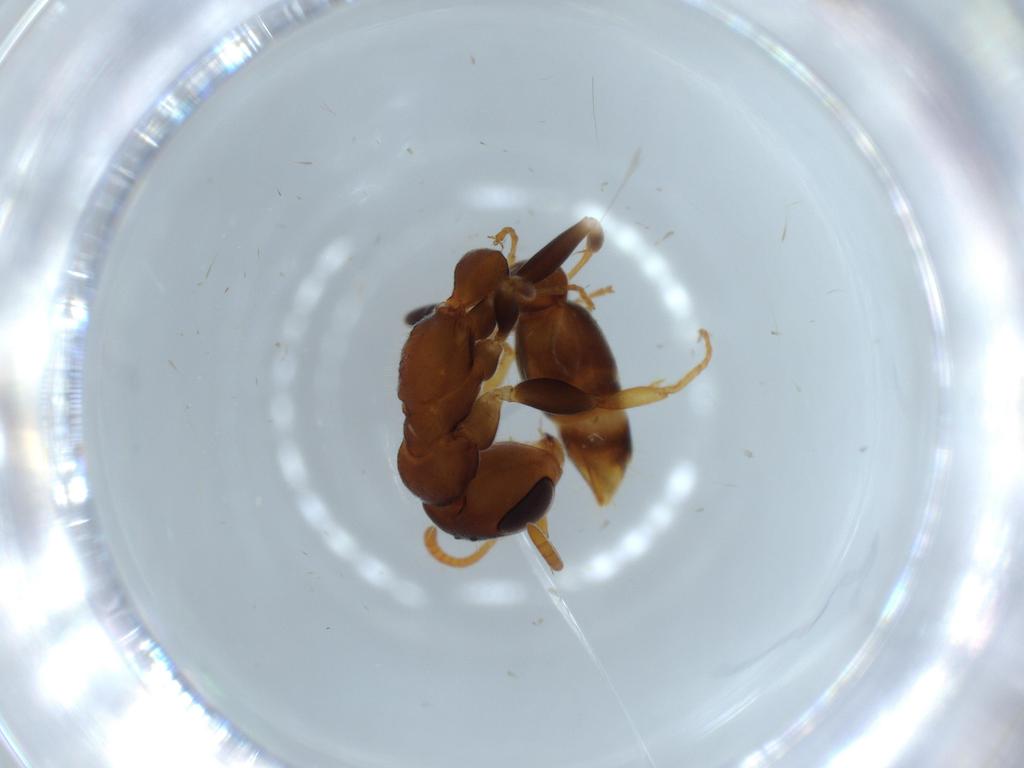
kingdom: Animalia
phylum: Arthropoda
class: Insecta
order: Hymenoptera
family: Formicidae
